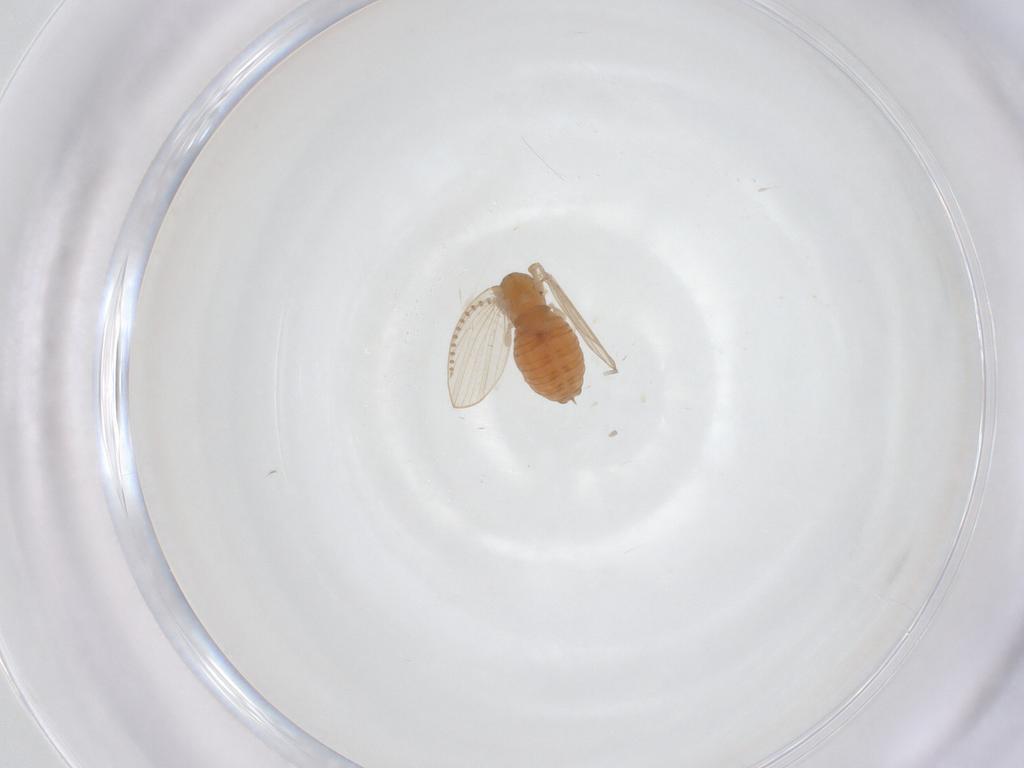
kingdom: Animalia
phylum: Arthropoda
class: Insecta
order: Diptera
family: Psychodidae
